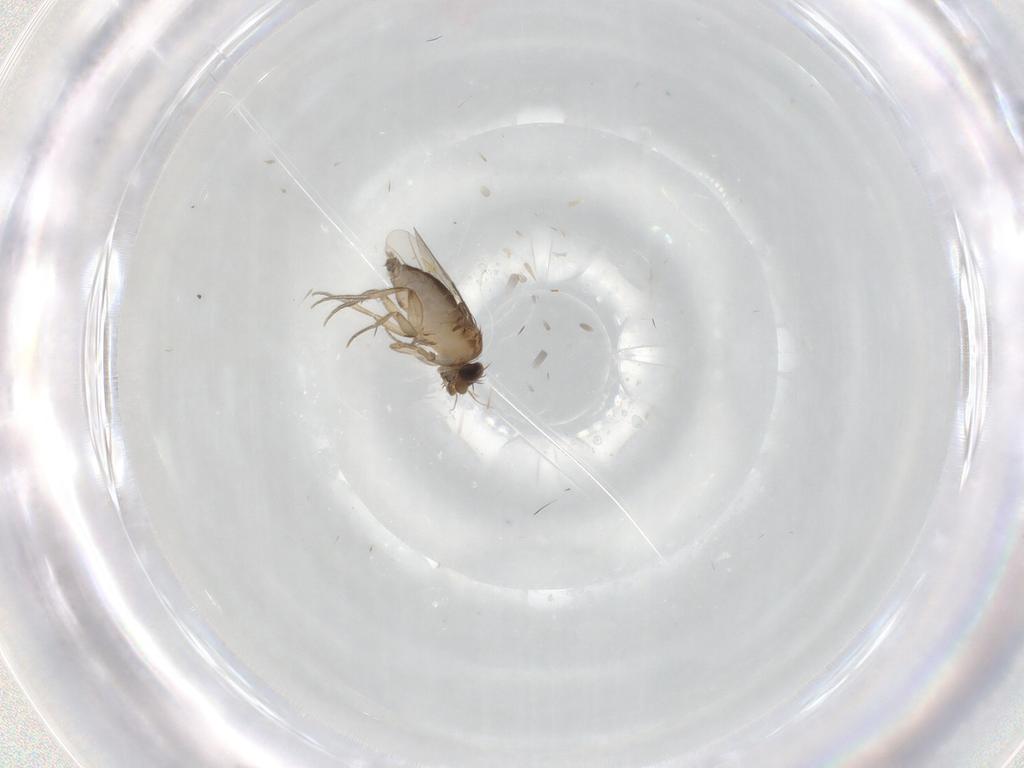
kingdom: Animalia
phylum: Arthropoda
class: Insecta
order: Diptera
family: Phoridae
